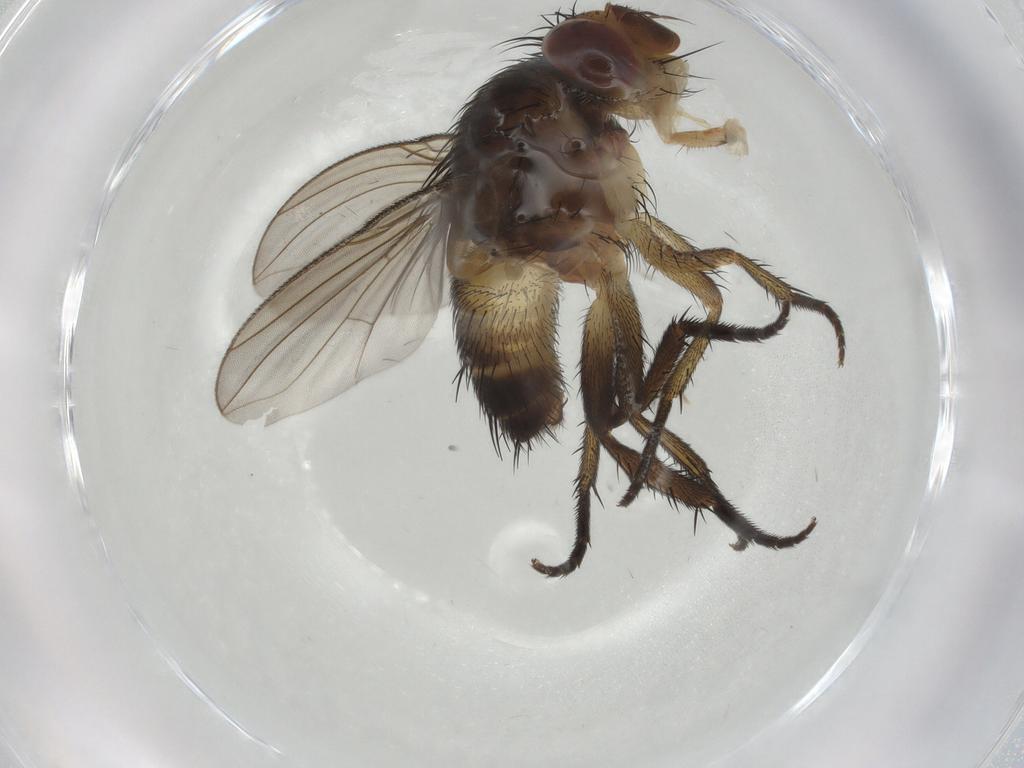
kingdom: Animalia
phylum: Arthropoda
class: Insecta
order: Diptera
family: Tachinidae
